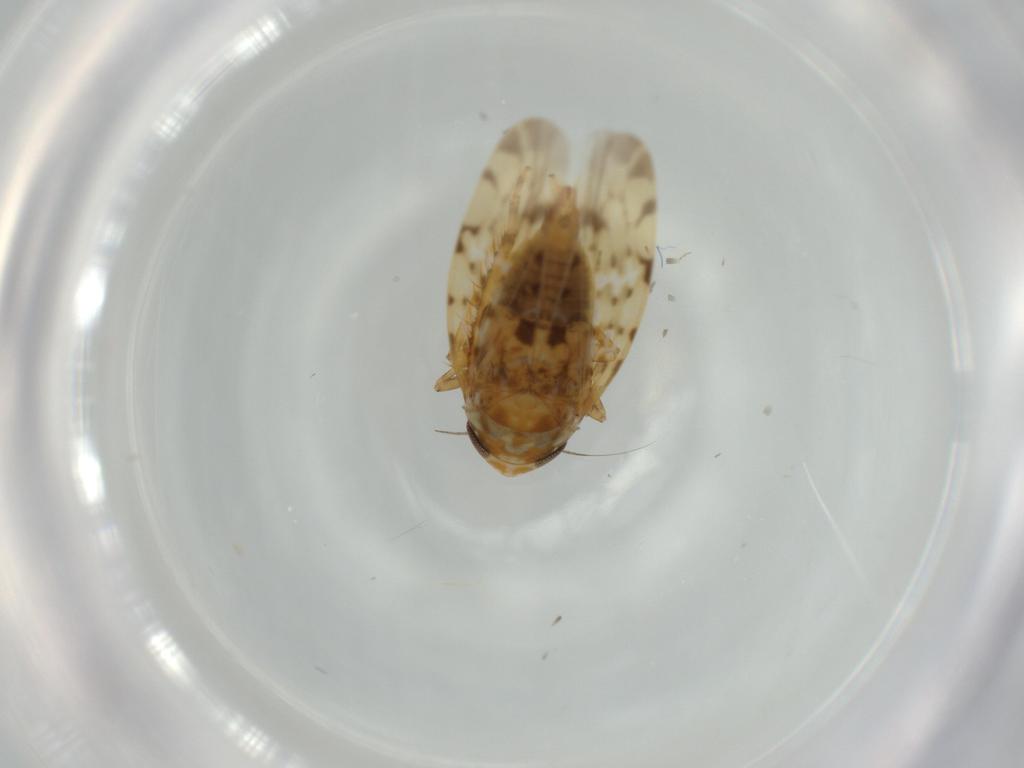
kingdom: Animalia
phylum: Arthropoda
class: Insecta
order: Hemiptera
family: Cicadellidae
